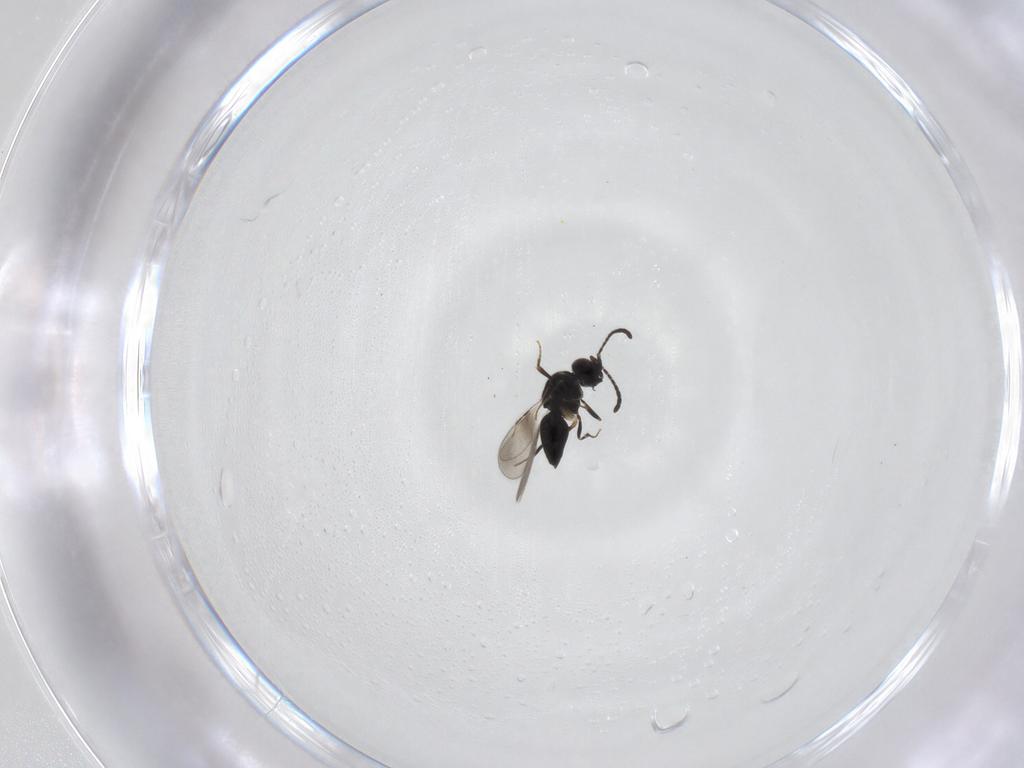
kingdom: Animalia
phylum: Arthropoda
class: Insecta
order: Hymenoptera
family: Ceraphronidae
